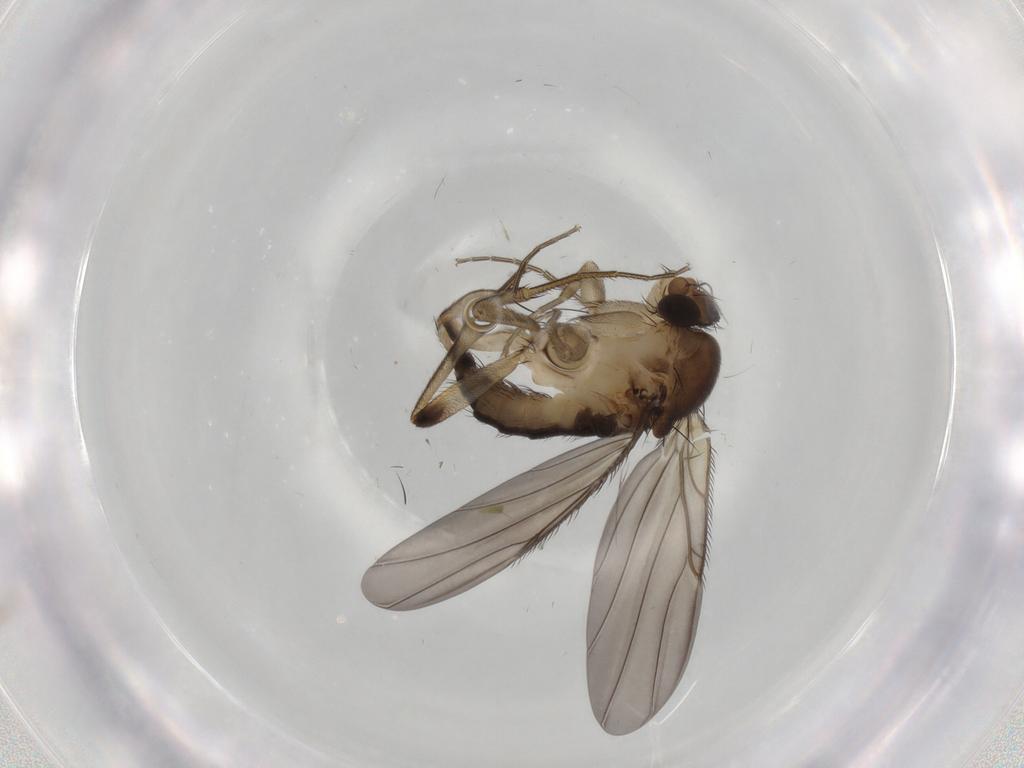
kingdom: Animalia
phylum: Arthropoda
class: Insecta
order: Diptera
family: Phoridae
